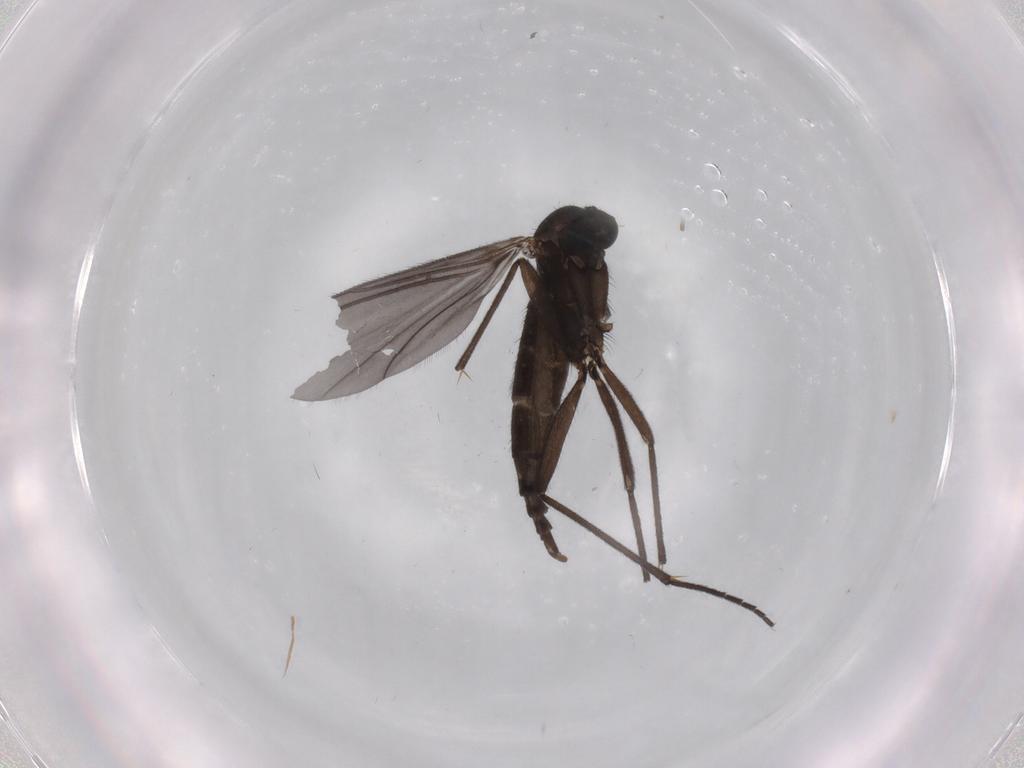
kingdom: Animalia
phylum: Arthropoda
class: Insecta
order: Diptera
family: Sciaridae
